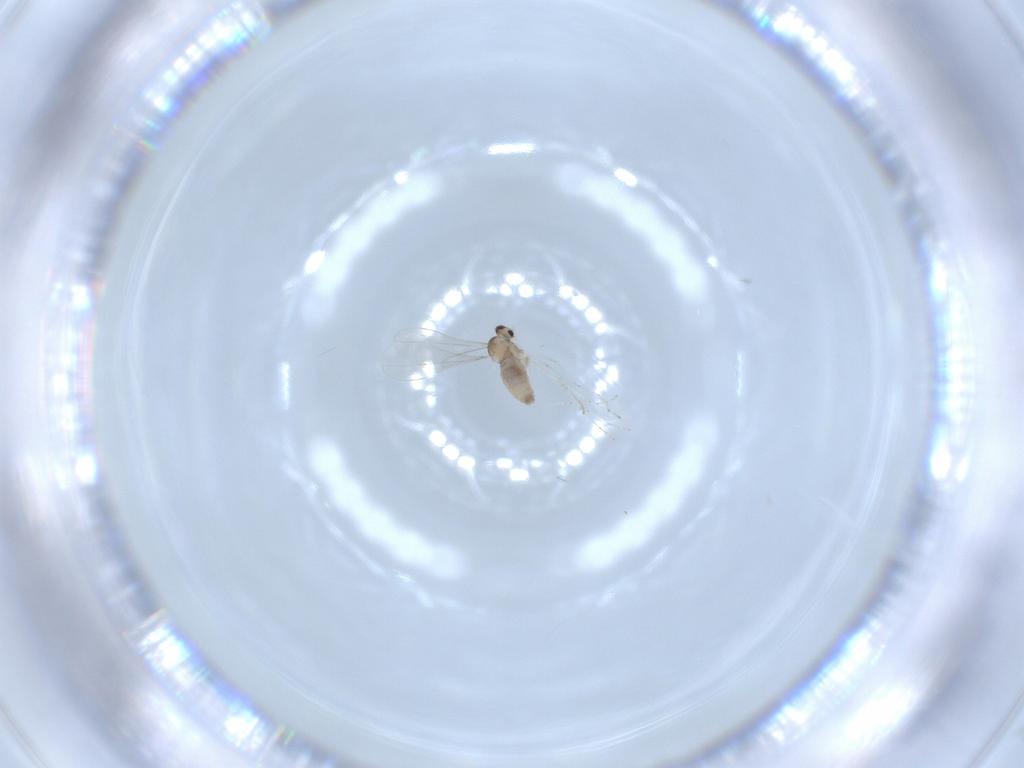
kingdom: Animalia
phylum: Arthropoda
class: Insecta
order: Diptera
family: Cecidomyiidae
